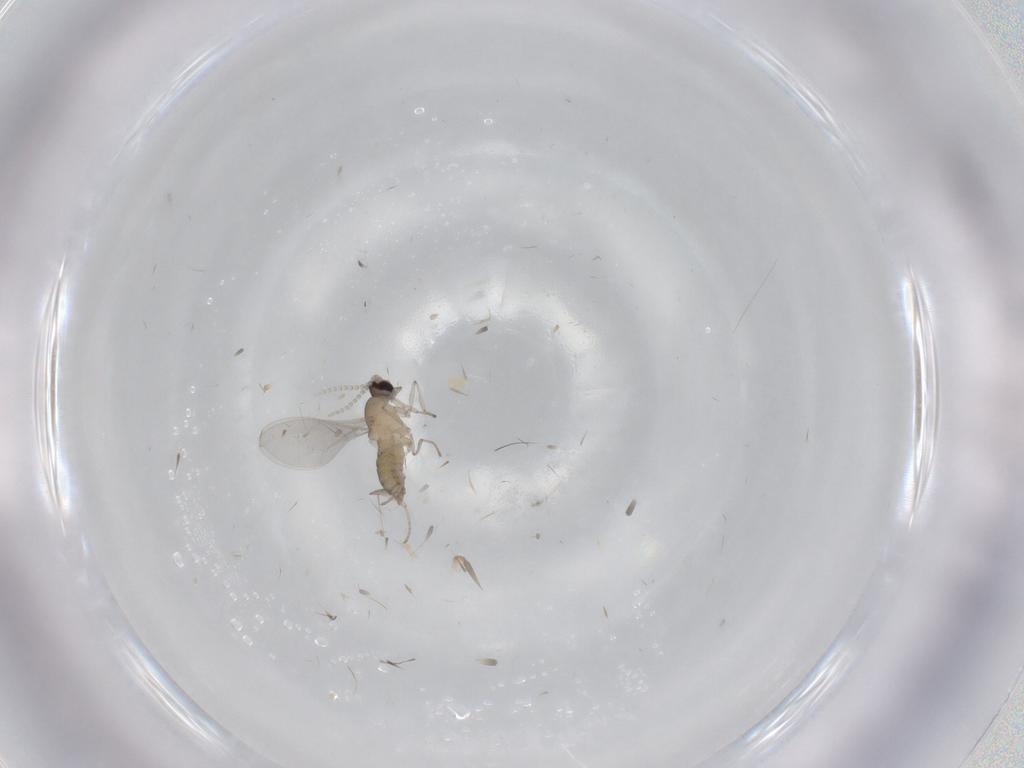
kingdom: Animalia
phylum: Arthropoda
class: Insecta
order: Diptera
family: Cecidomyiidae
